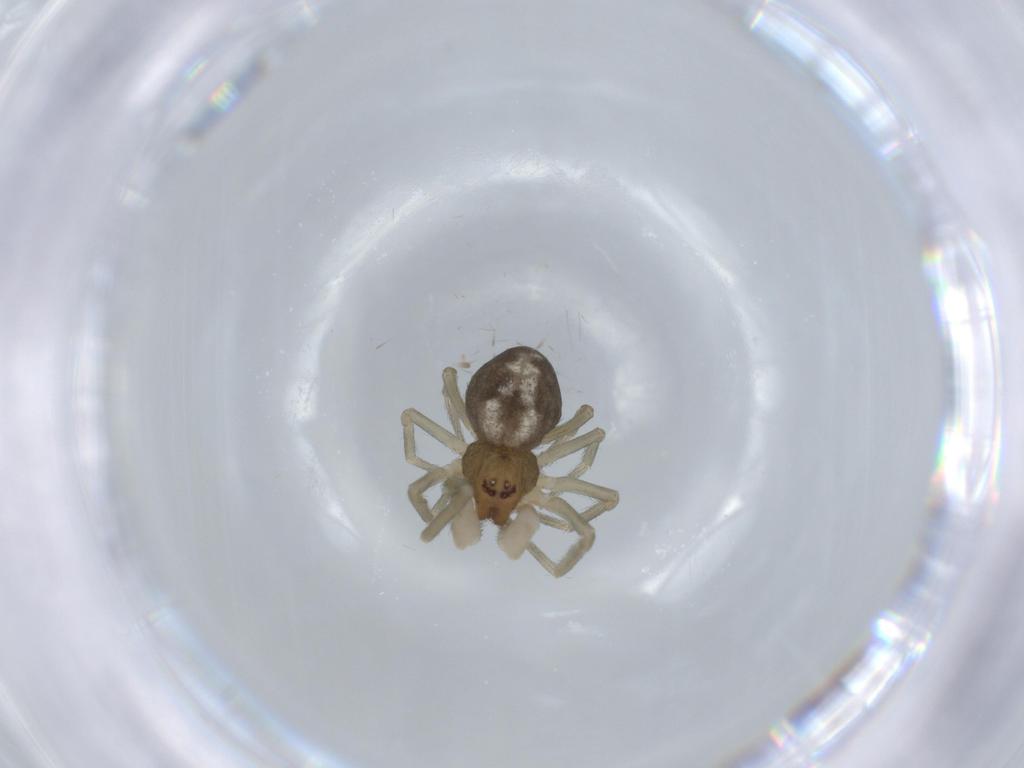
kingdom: Animalia
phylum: Arthropoda
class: Arachnida
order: Araneae
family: Dictynidae
